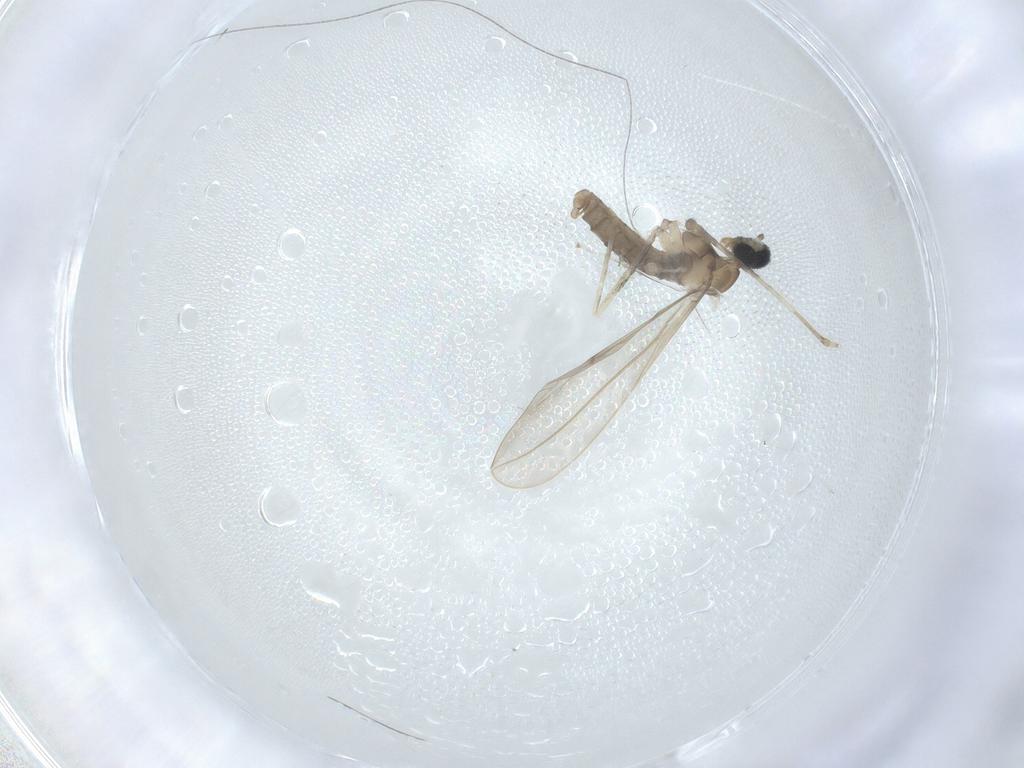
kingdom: Animalia
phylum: Arthropoda
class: Insecta
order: Diptera
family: Cecidomyiidae
